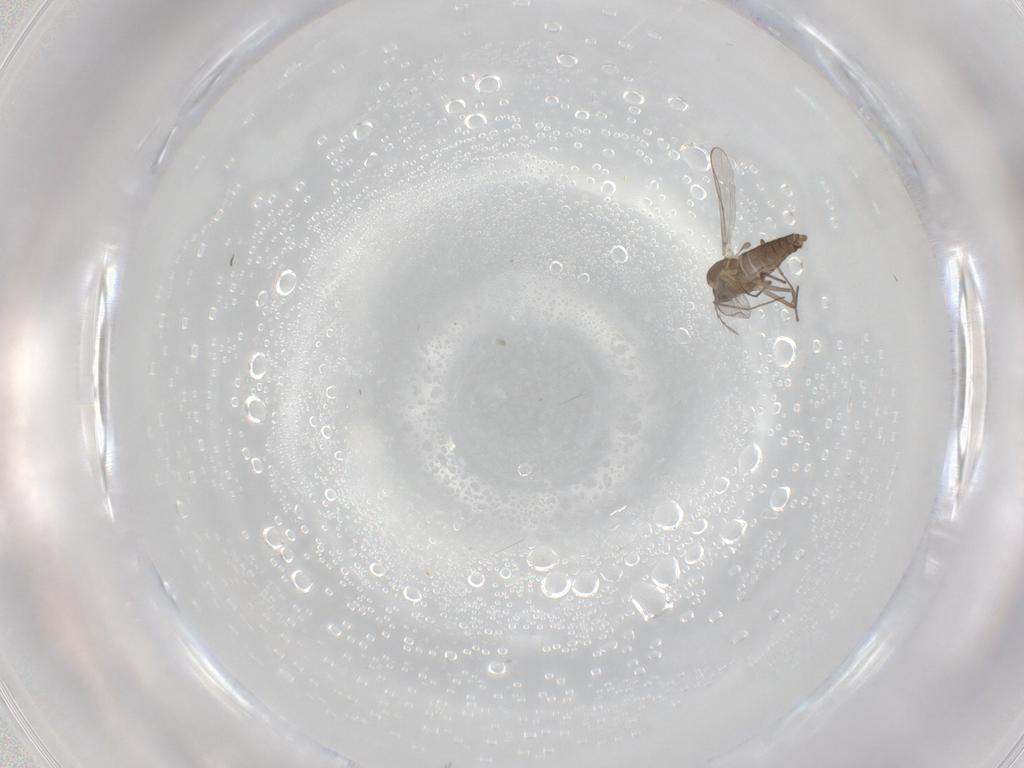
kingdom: Animalia
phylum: Arthropoda
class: Insecta
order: Diptera
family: Chironomidae
